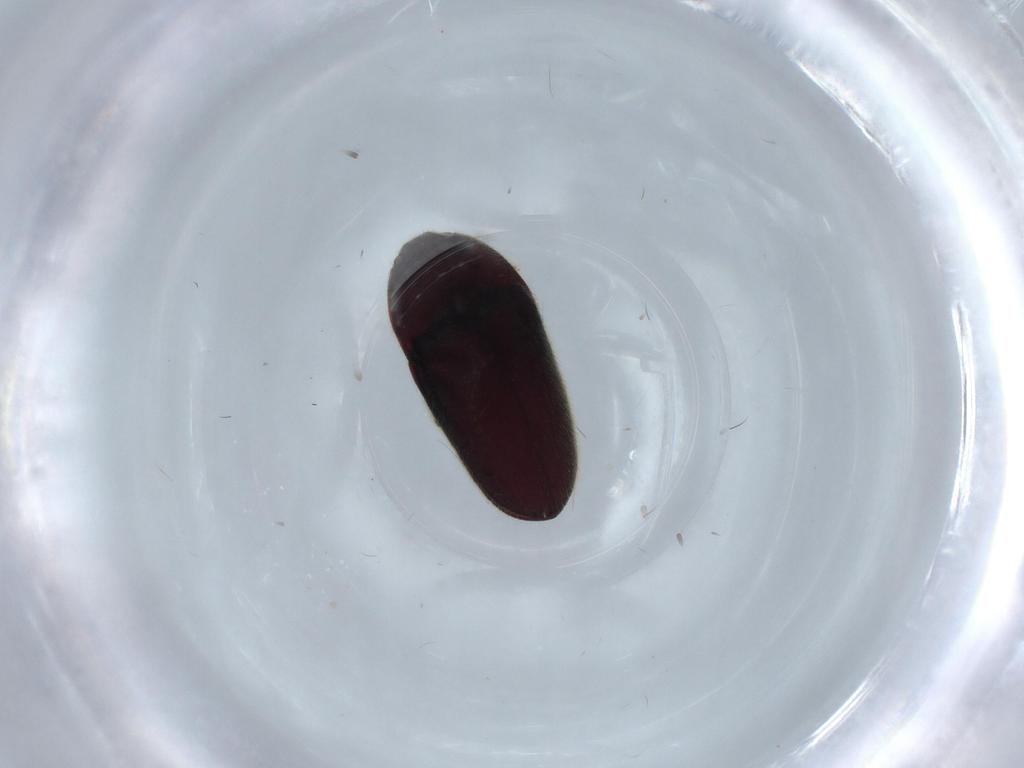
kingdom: Animalia
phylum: Arthropoda
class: Insecta
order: Coleoptera
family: Throscidae
